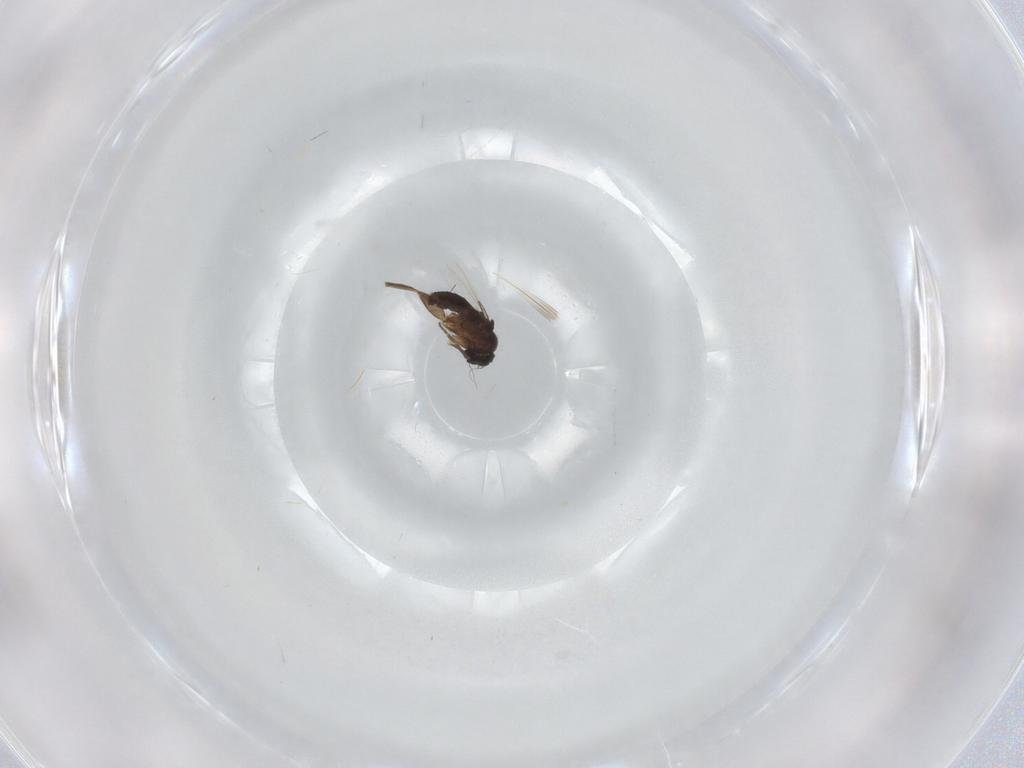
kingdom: Animalia
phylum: Arthropoda
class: Insecta
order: Diptera
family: Phoridae
